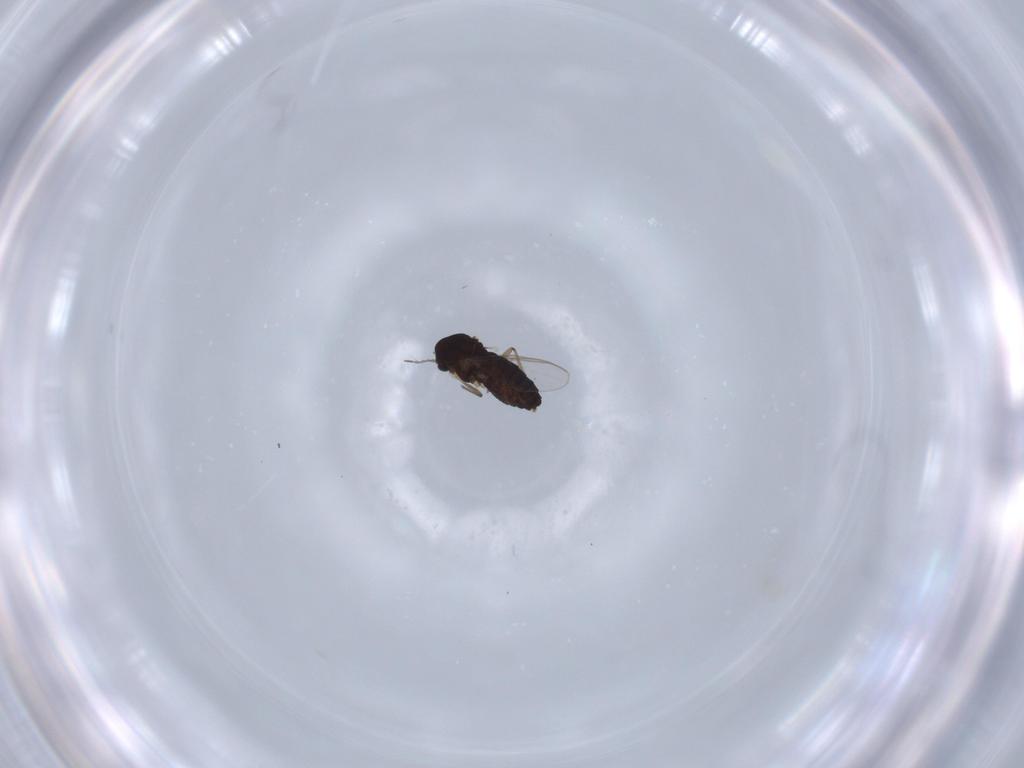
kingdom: Animalia
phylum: Arthropoda
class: Insecta
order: Diptera
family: Chironomidae
